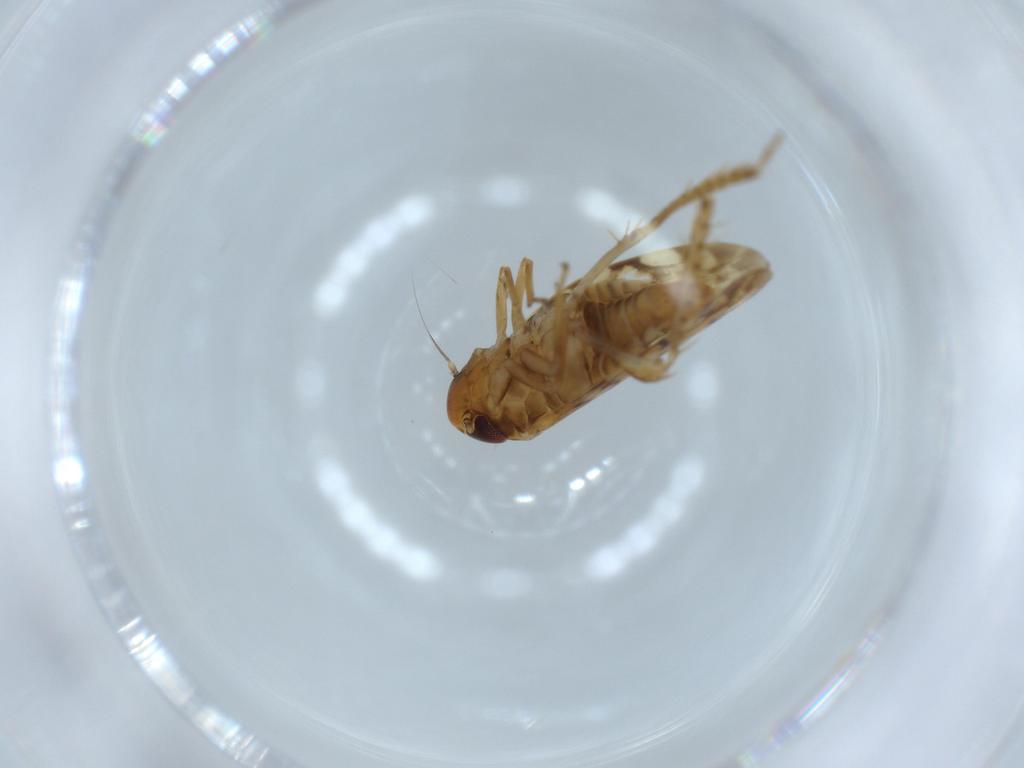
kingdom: Animalia
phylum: Arthropoda
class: Insecta
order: Hemiptera
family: Cicadellidae
